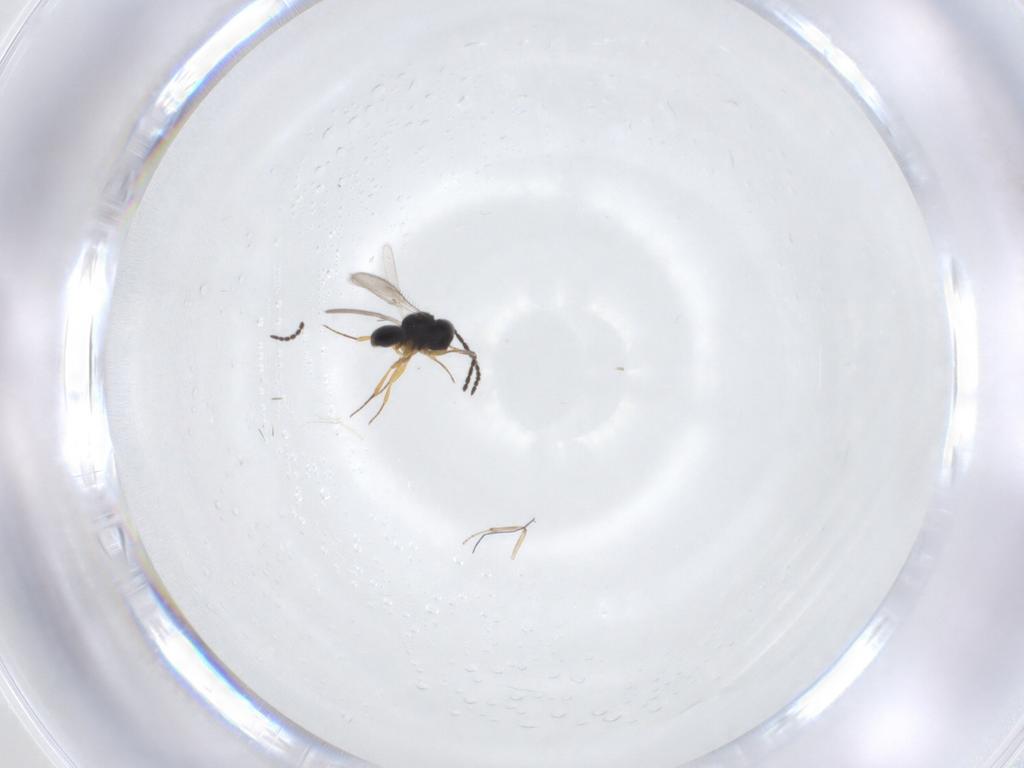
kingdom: Animalia
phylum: Arthropoda
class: Insecta
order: Hymenoptera
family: Scelionidae
